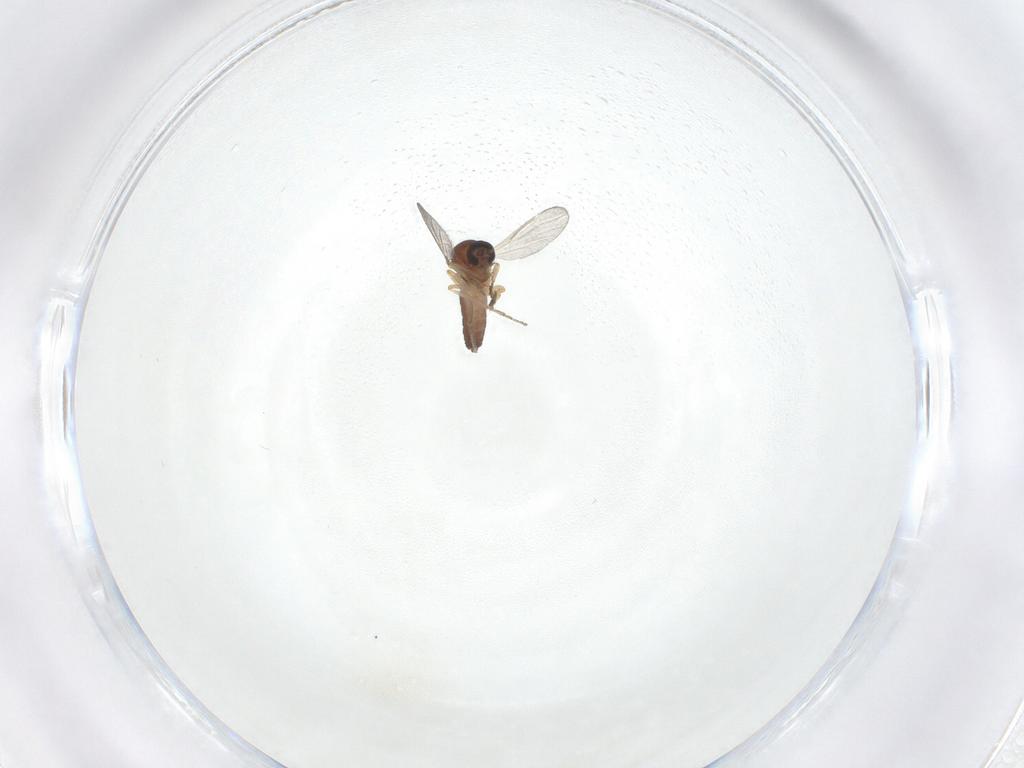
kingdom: Animalia
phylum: Arthropoda
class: Insecta
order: Diptera
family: Ceratopogonidae
